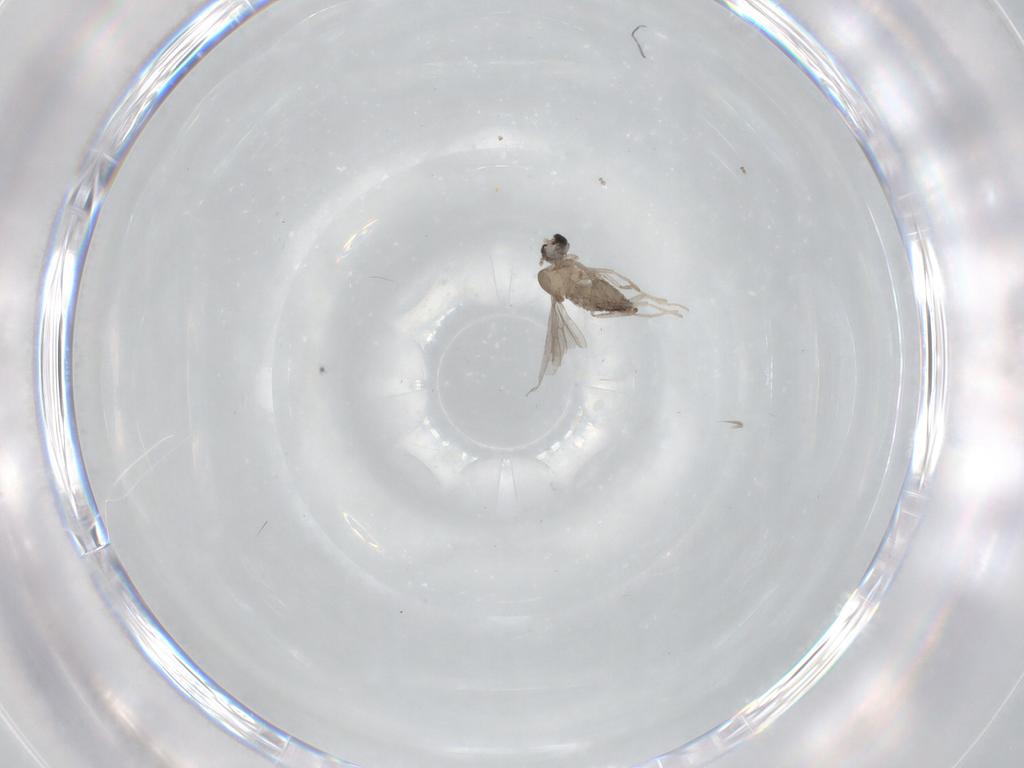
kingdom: Animalia
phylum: Arthropoda
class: Insecta
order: Diptera
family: Cecidomyiidae
